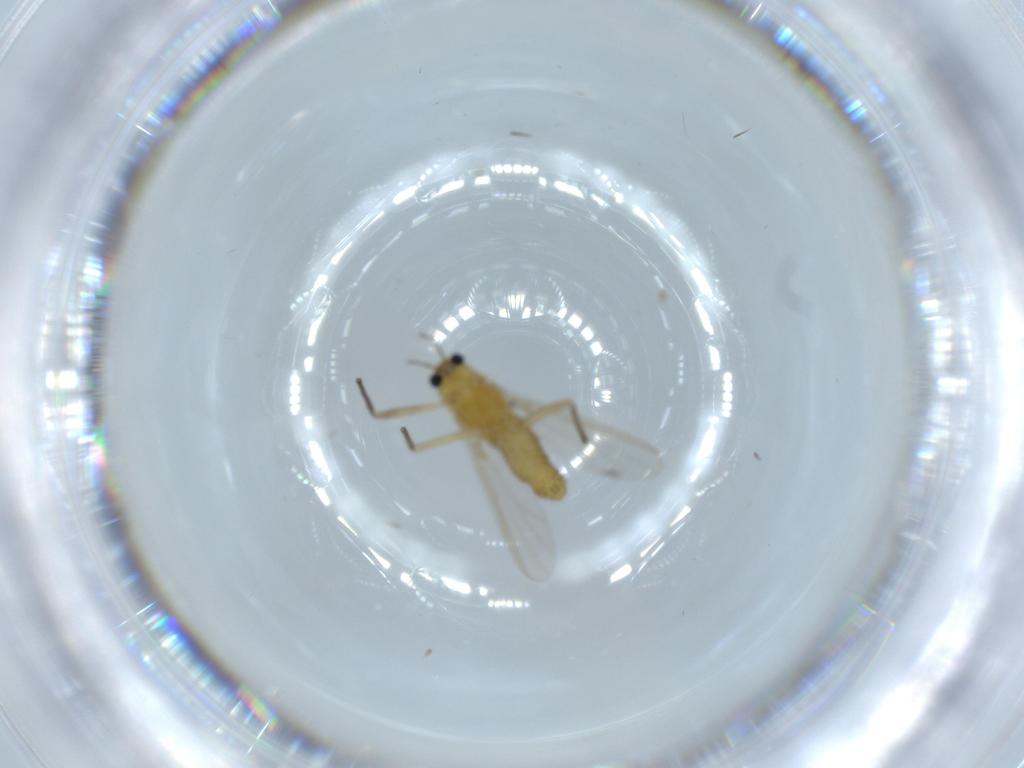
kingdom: Animalia
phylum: Arthropoda
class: Insecta
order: Diptera
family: Chironomidae
